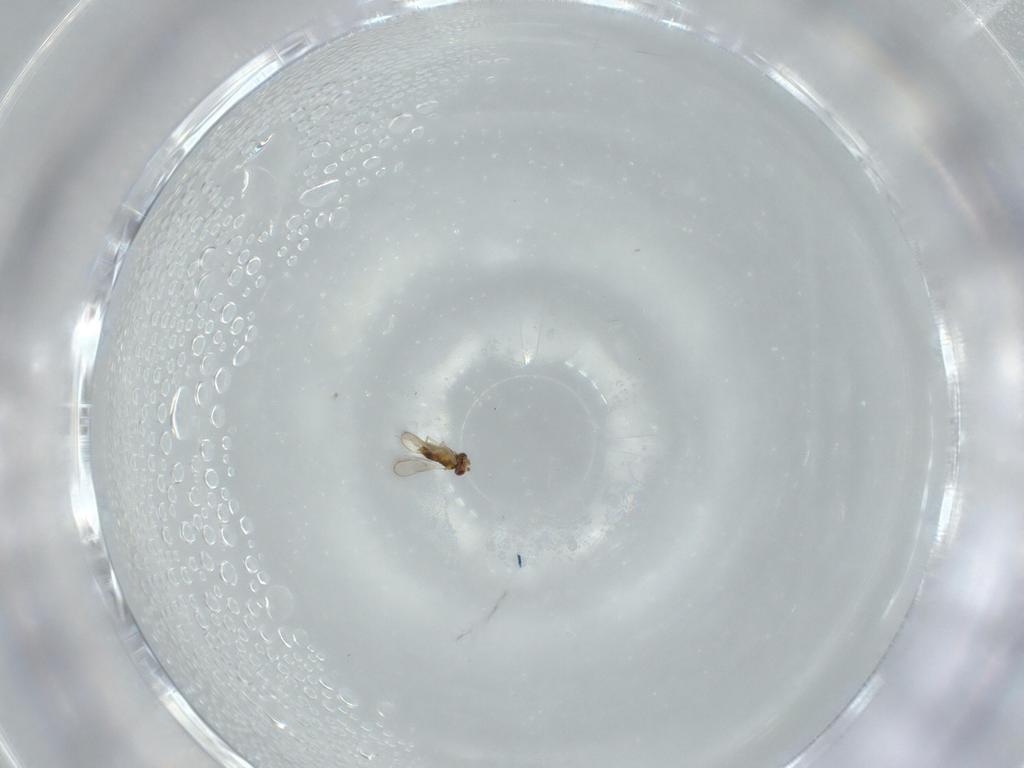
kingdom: Animalia
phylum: Arthropoda
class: Insecta
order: Hymenoptera
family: Aphelinidae
